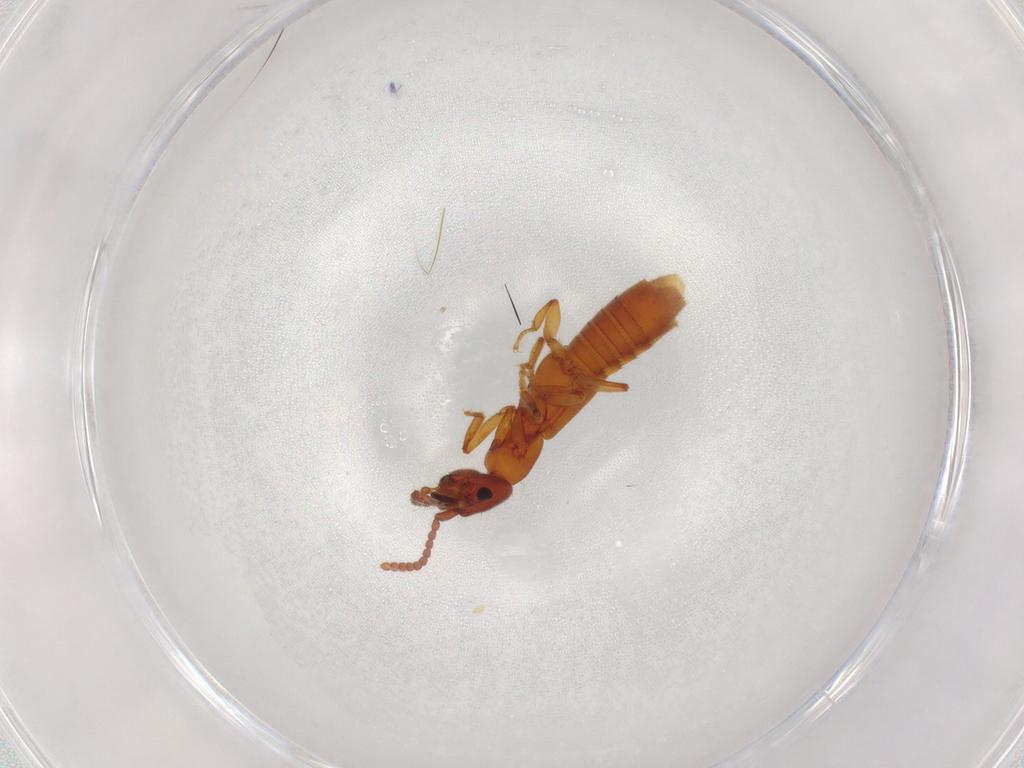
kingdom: Animalia
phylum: Arthropoda
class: Insecta
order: Coleoptera
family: Staphylinidae
